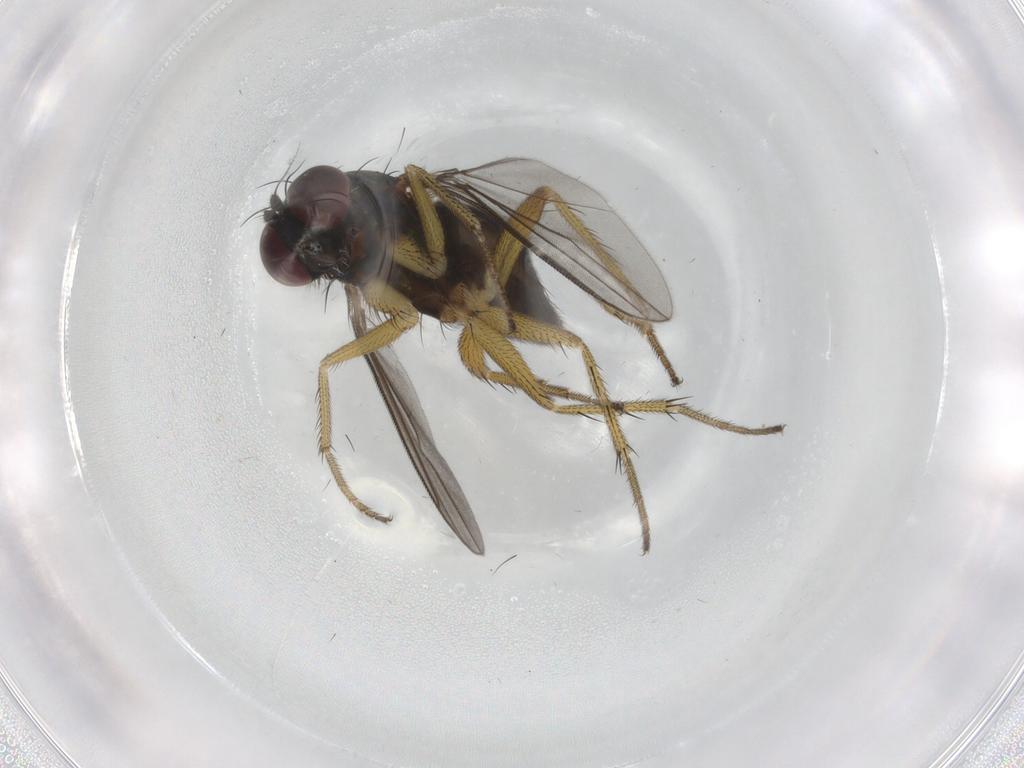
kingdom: Animalia
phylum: Arthropoda
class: Insecta
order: Diptera
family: Dolichopodidae
